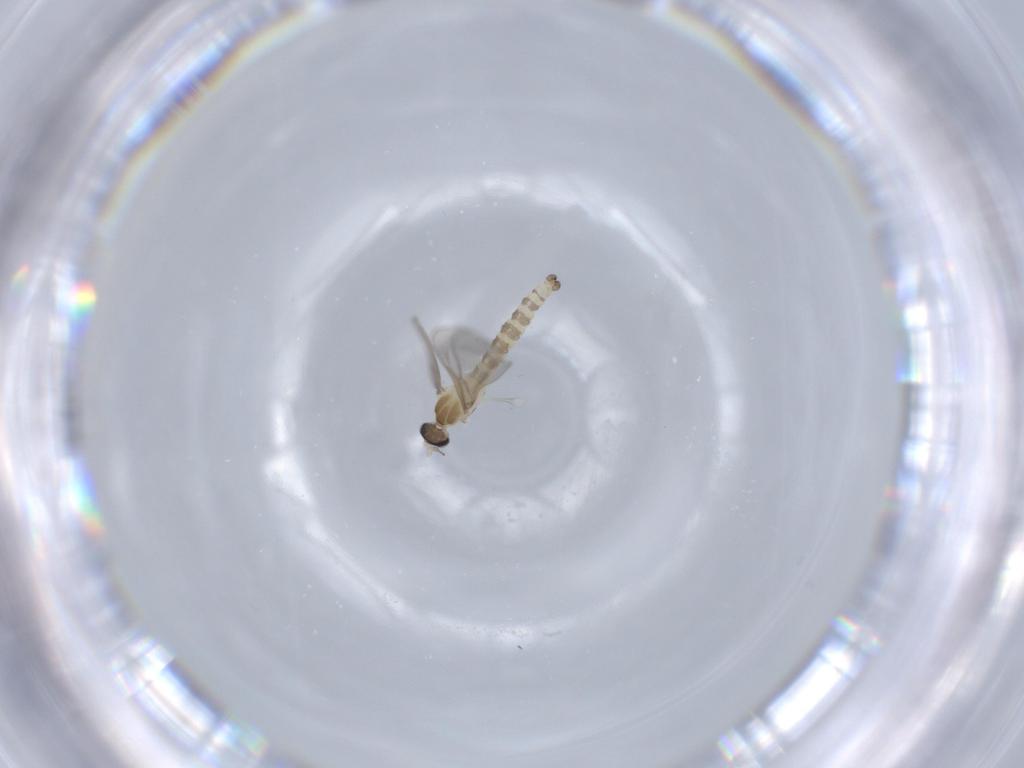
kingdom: Animalia
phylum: Arthropoda
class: Insecta
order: Diptera
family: Cecidomyiidae
